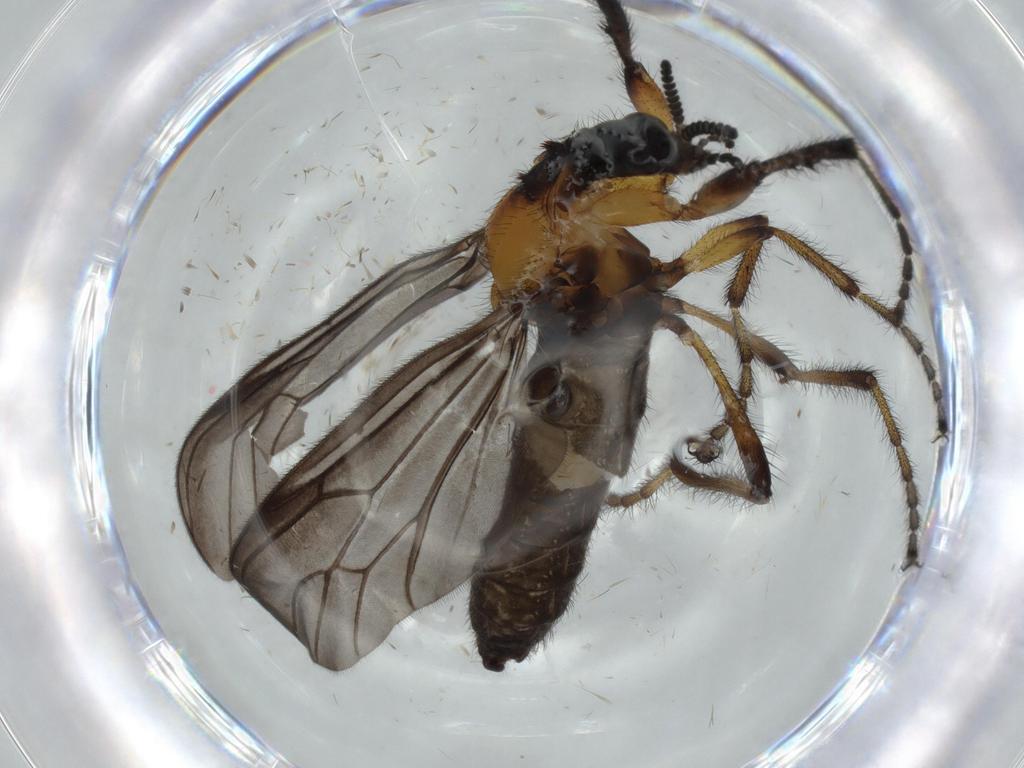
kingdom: Animalia
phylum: Arthropoda
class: Insecta
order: Diptera
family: Bibionidae
